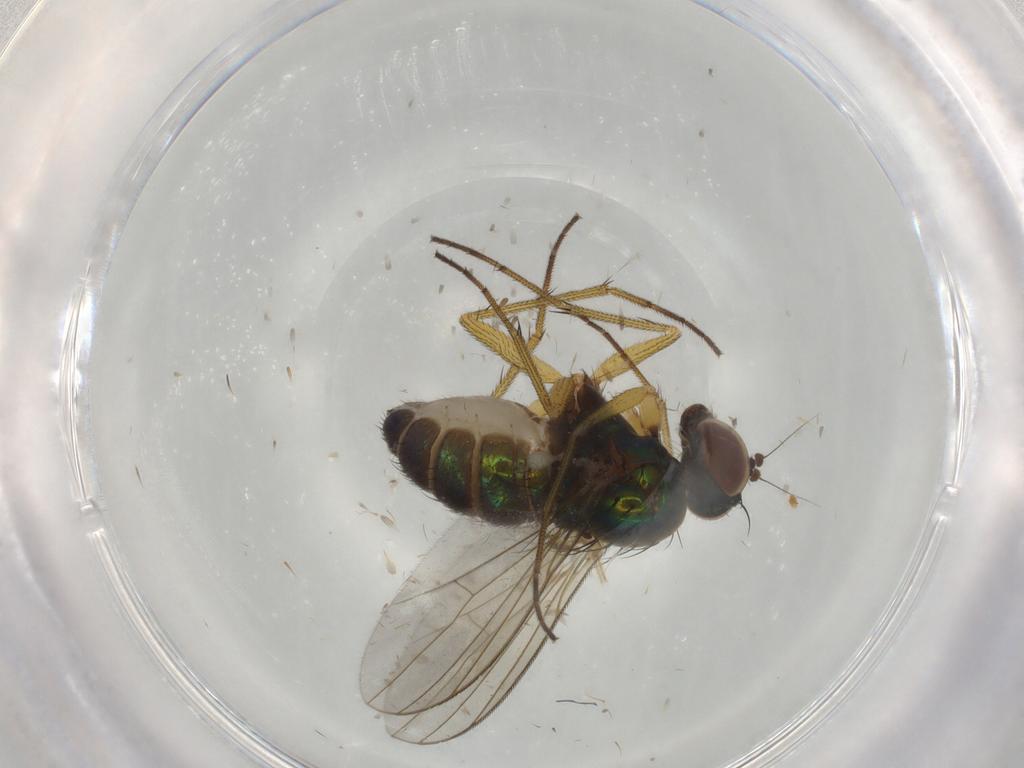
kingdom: Animalia
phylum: Arthropoda
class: Insecta
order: Diptera
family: Dolichopodidae
